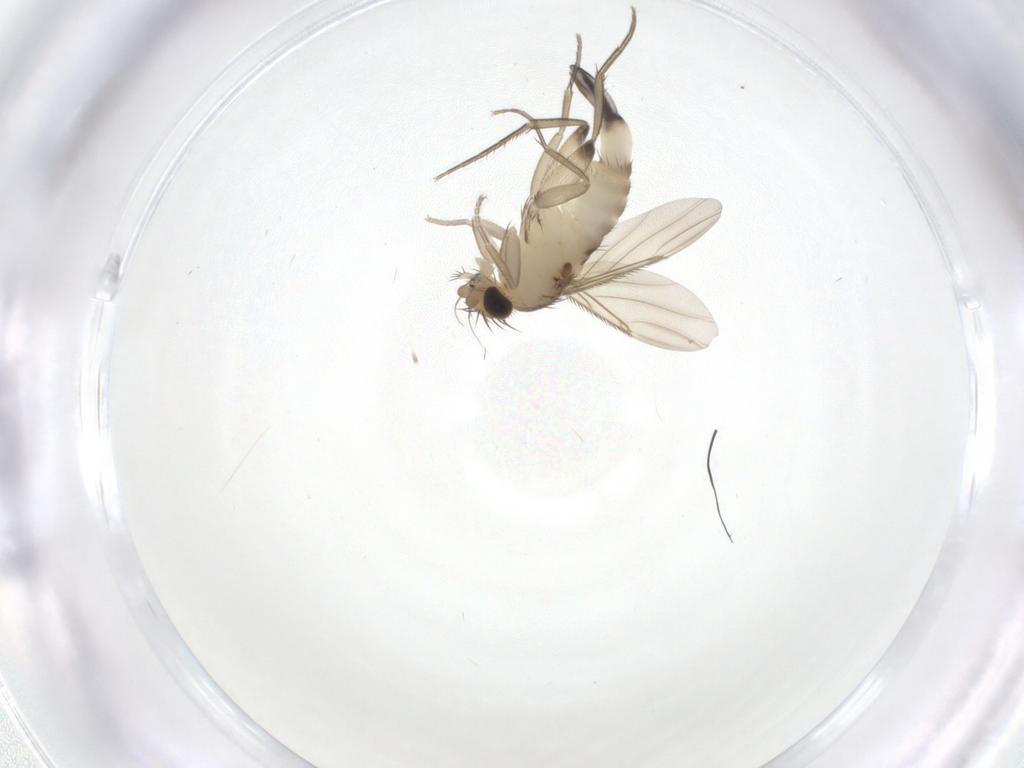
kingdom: Animalia
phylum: Arthropoda
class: Insecta
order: Diptera
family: Phoridae
